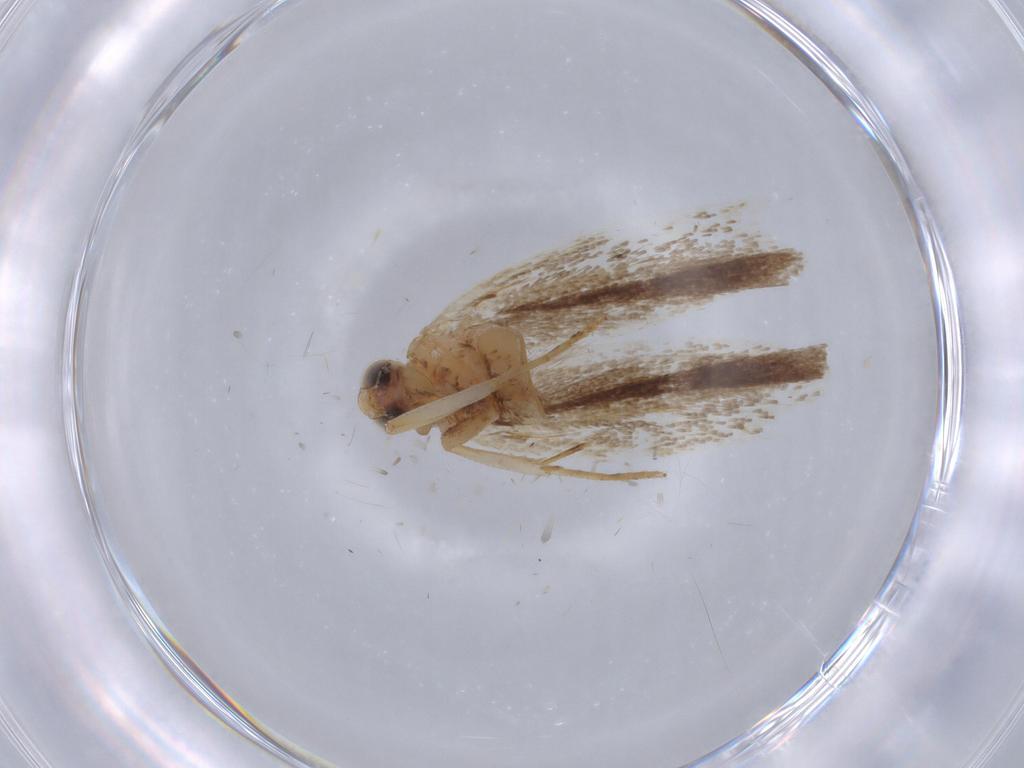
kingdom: Animalia
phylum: Arthropoda
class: Insecta
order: Lepidoptera
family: Gelechiidae
